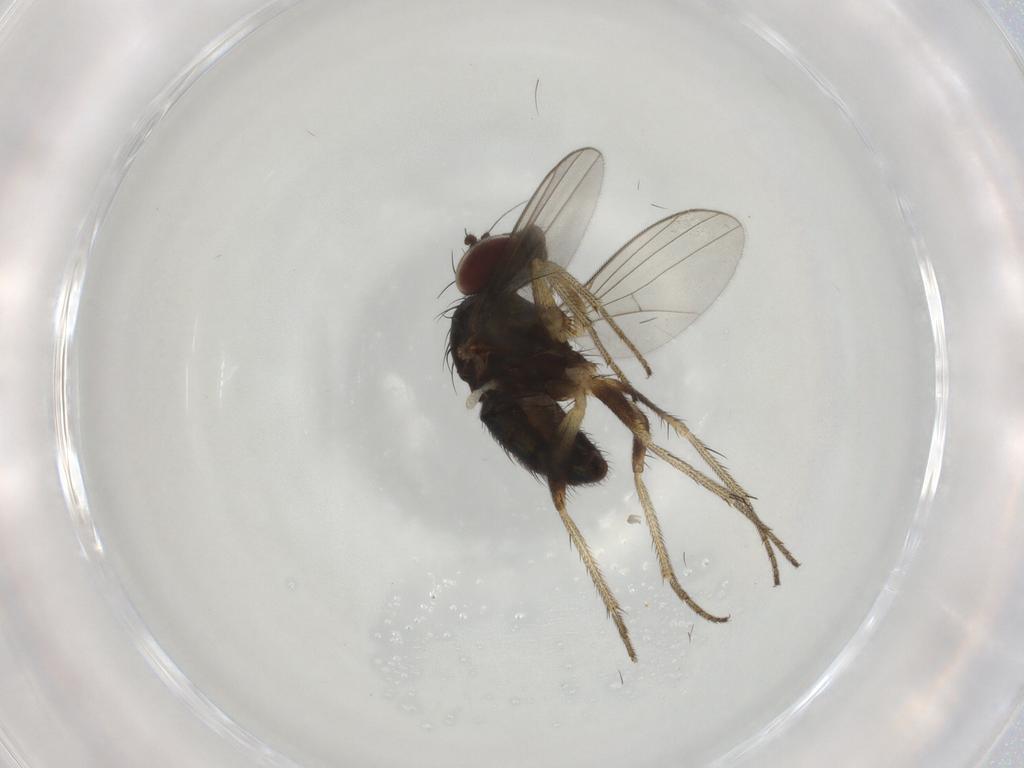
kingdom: Animalia
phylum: Arthropoda
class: Insecta
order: Diptera
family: Dolichopodidae
